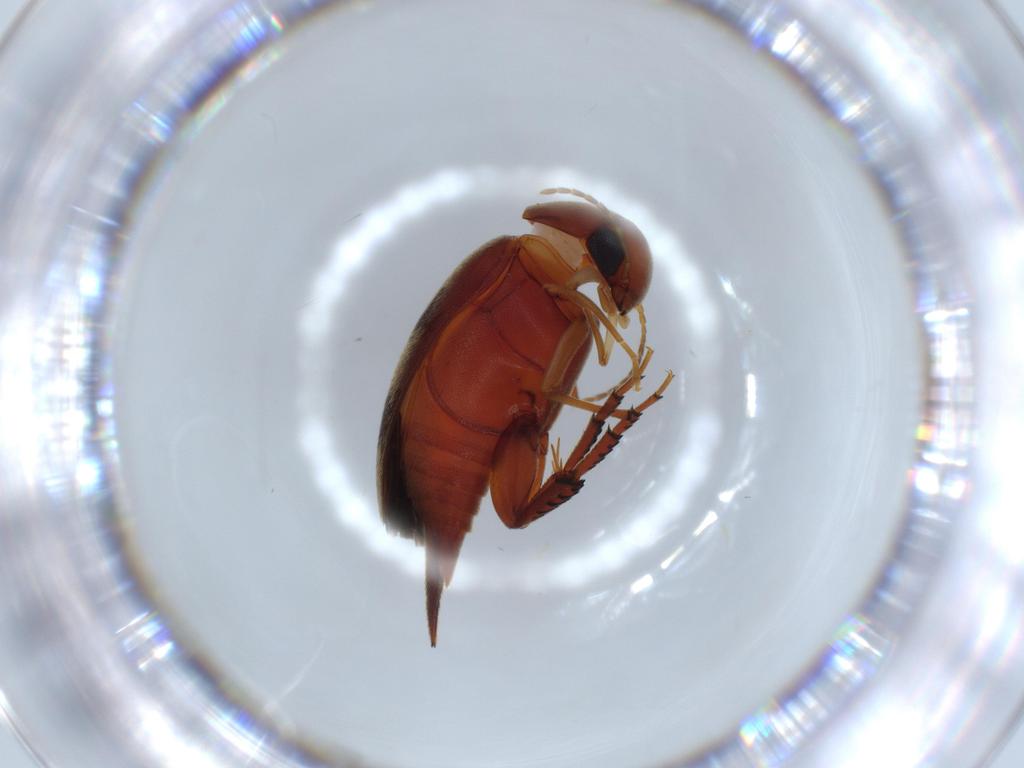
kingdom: Animalia
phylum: Arthropoda
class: Insecta
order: Coleoptera
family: Mordellidae
